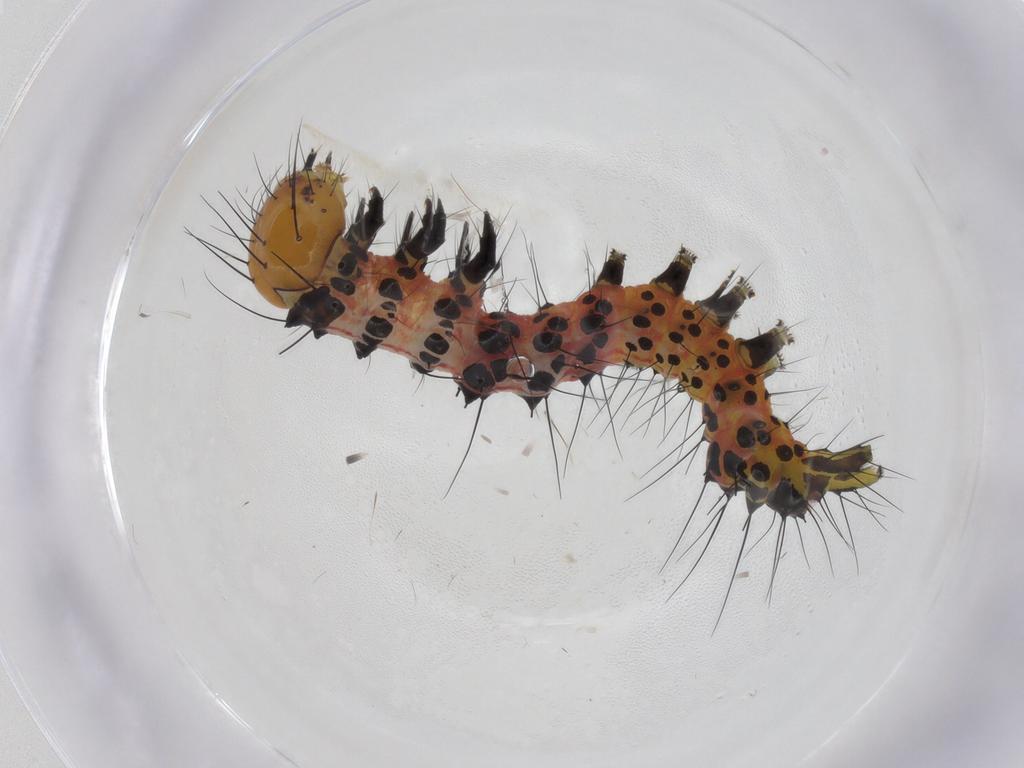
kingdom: Animalia
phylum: Arthropoda
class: Insecta
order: Lepidoptera
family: Notodontidae
